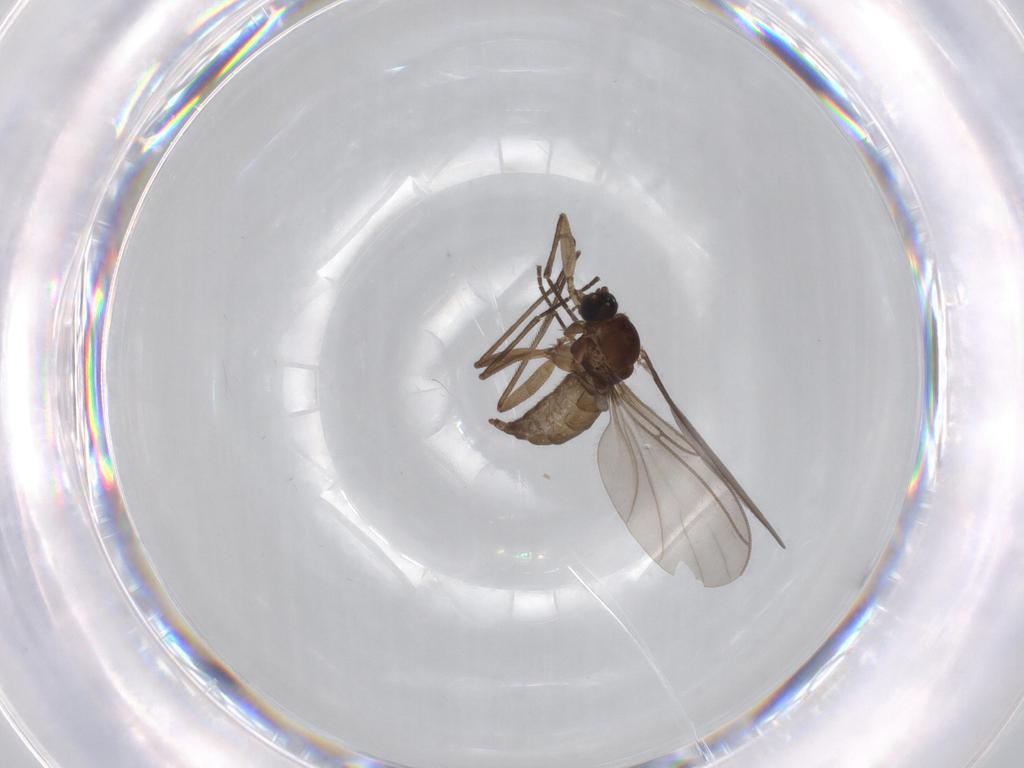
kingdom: Animalia
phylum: Arthropoda
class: Insecta
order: Diptera
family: Sciaridae
